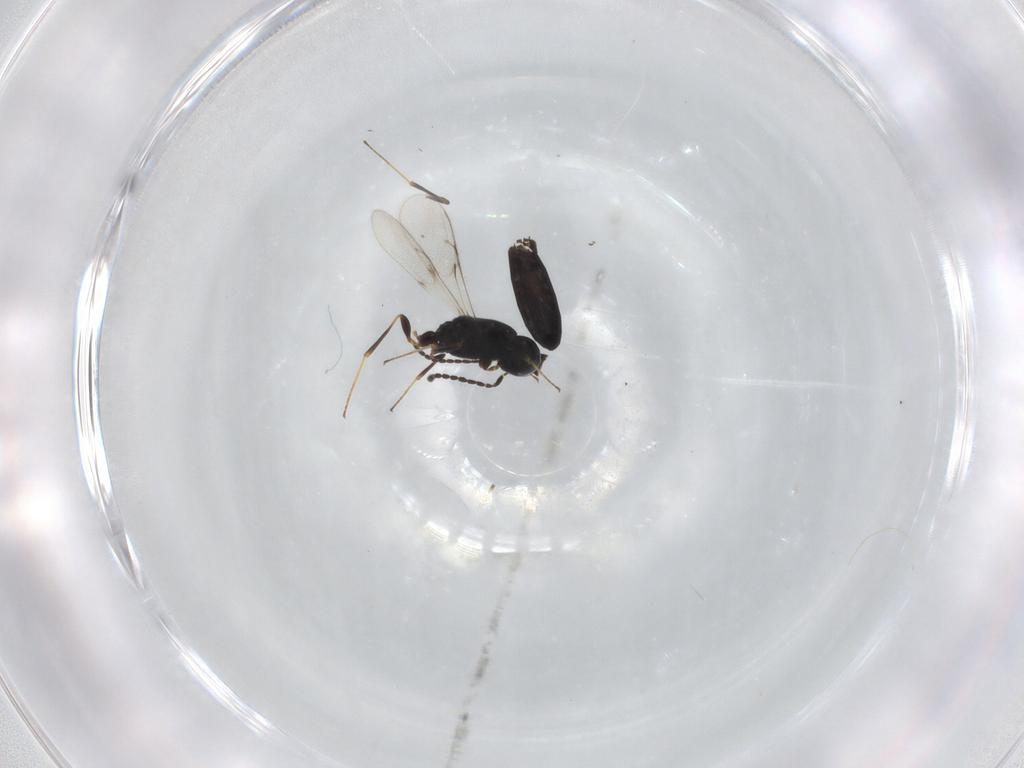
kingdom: Animalia
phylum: Arthropoda
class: Insecta
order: Hymenoptera
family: Scelionidae
